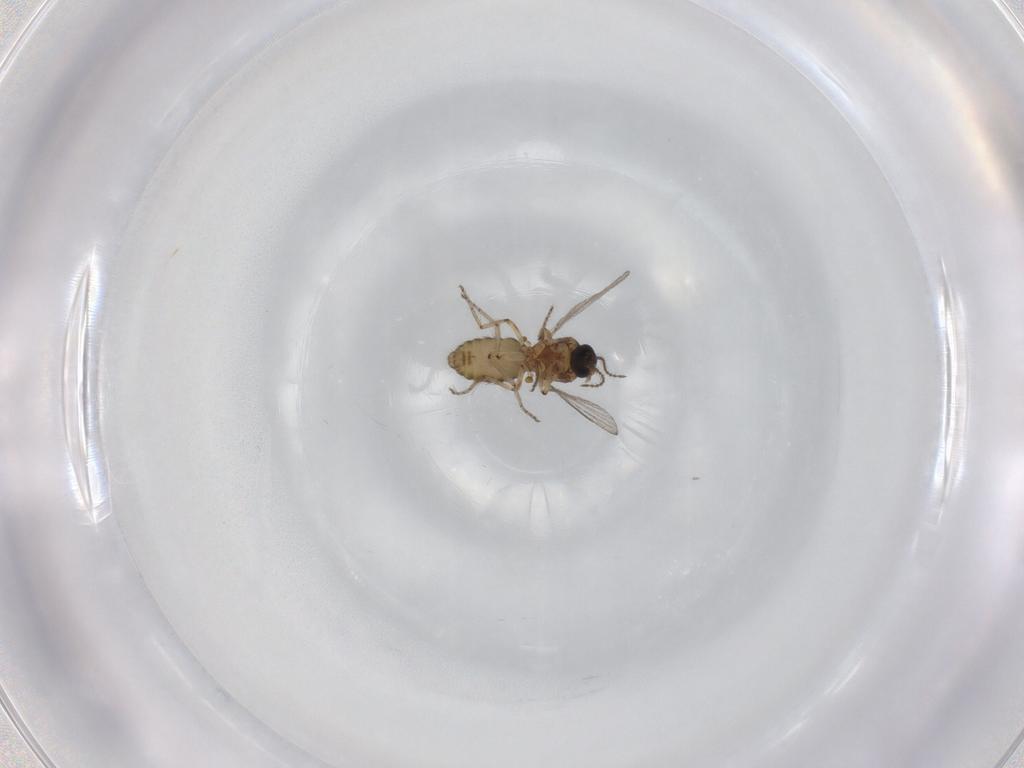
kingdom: Animalia
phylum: Arthropoda
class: Insecta
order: Diptera
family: Ceratopogonidae
